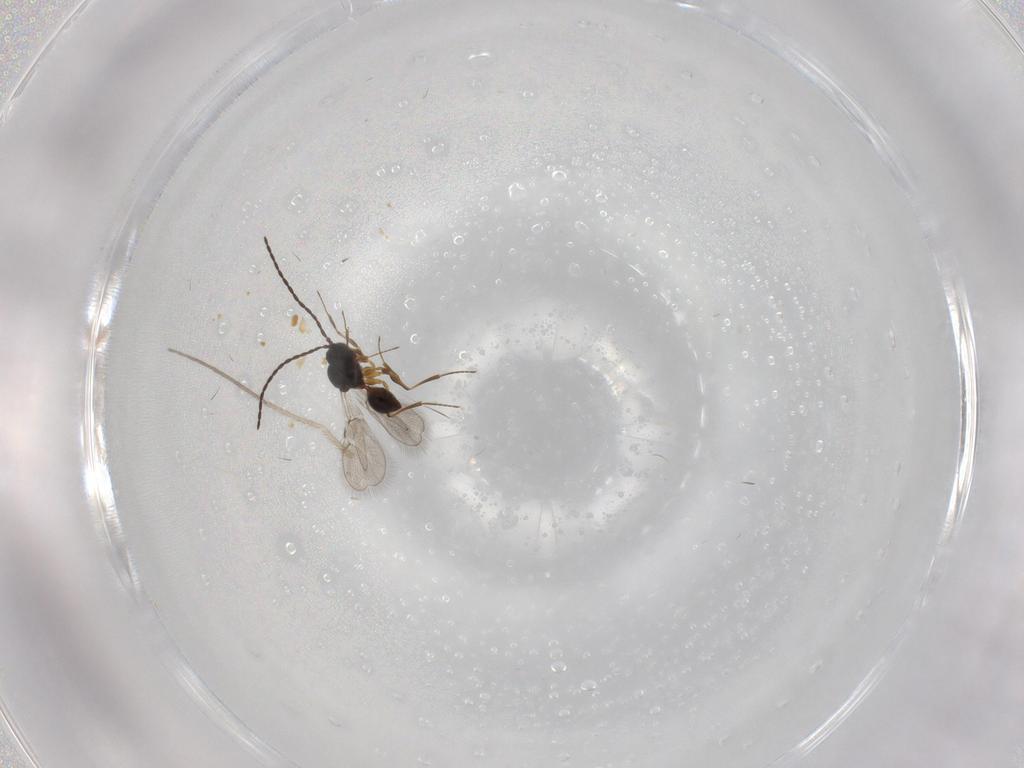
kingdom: Animalia
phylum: Arthropoda
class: Insecta
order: Hymenoptera
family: Figitidae
